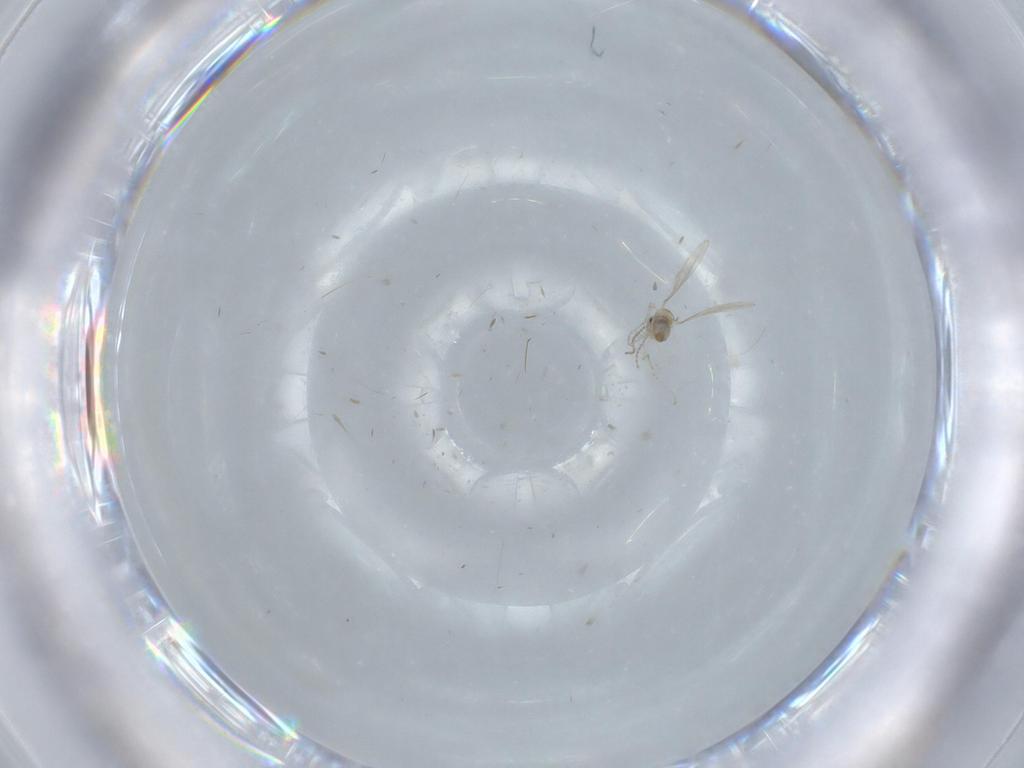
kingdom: Animalia
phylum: Arthropoda
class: Insecta
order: Diptera
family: Cecidomyiidae
